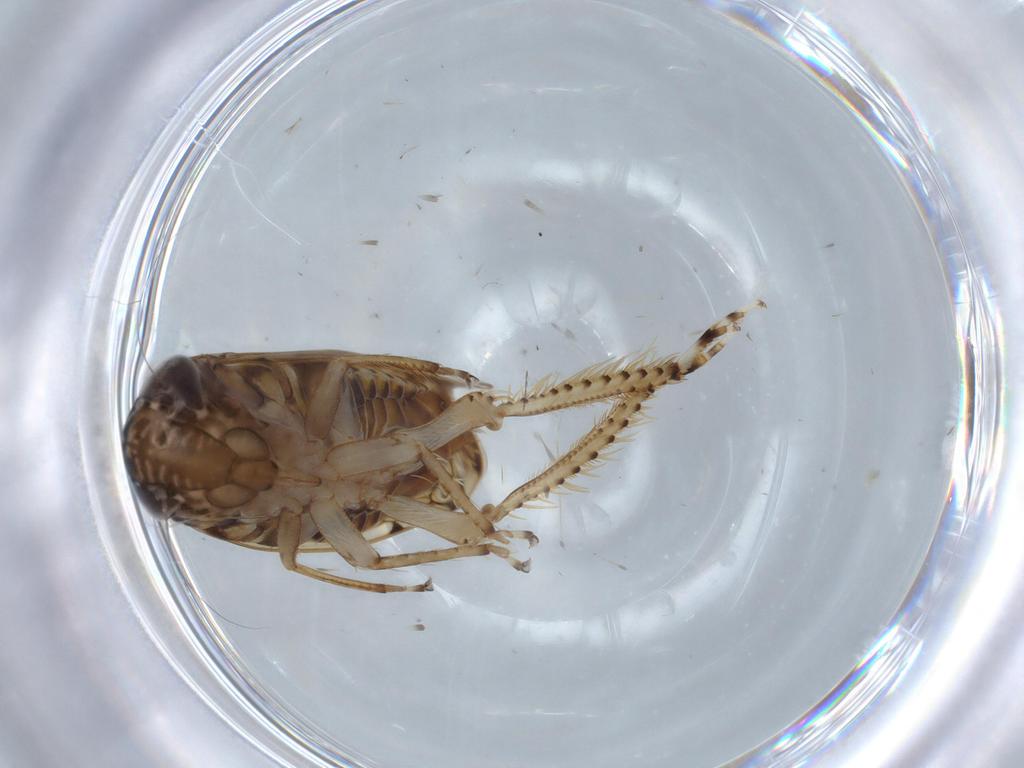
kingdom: Animalia
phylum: Arthropoda
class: Insecta
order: Hemiptera
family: Cicadellidae
